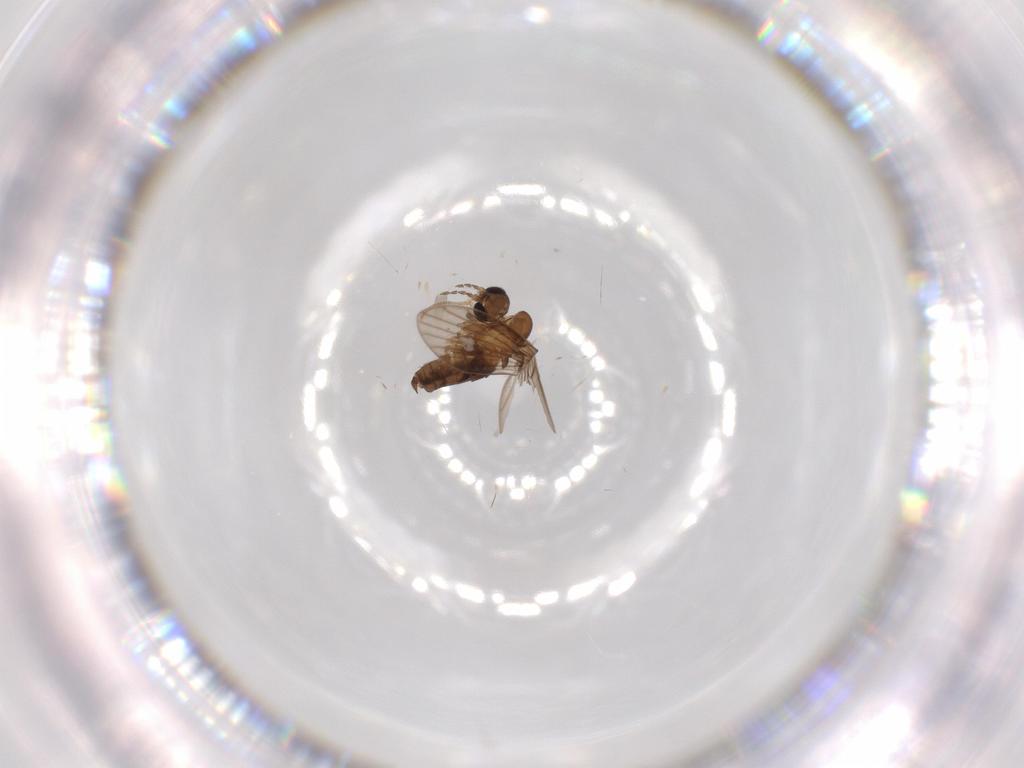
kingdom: Animalia
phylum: Arthropoda
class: Insecta
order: Diptera
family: Psychodidae
